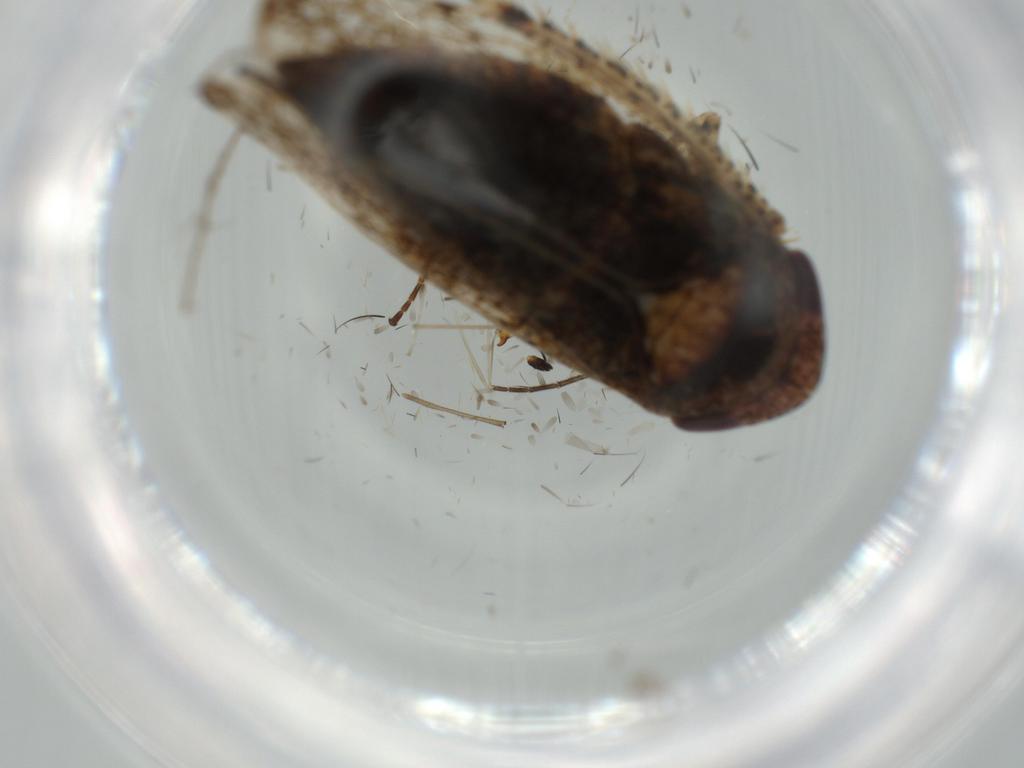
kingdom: Animalia
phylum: Arthropoda
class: Insecta
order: Hemiptera
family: Cicadellidae
